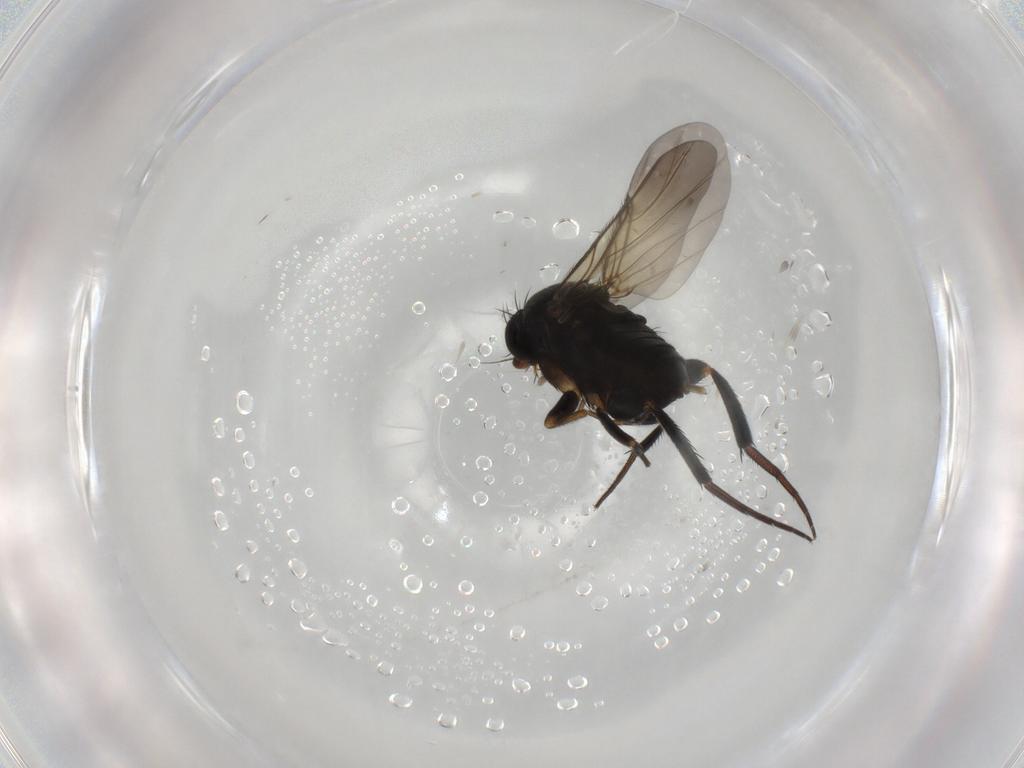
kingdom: Animalia
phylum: Arthropoda
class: Insecta
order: Diptera
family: Phoridae
